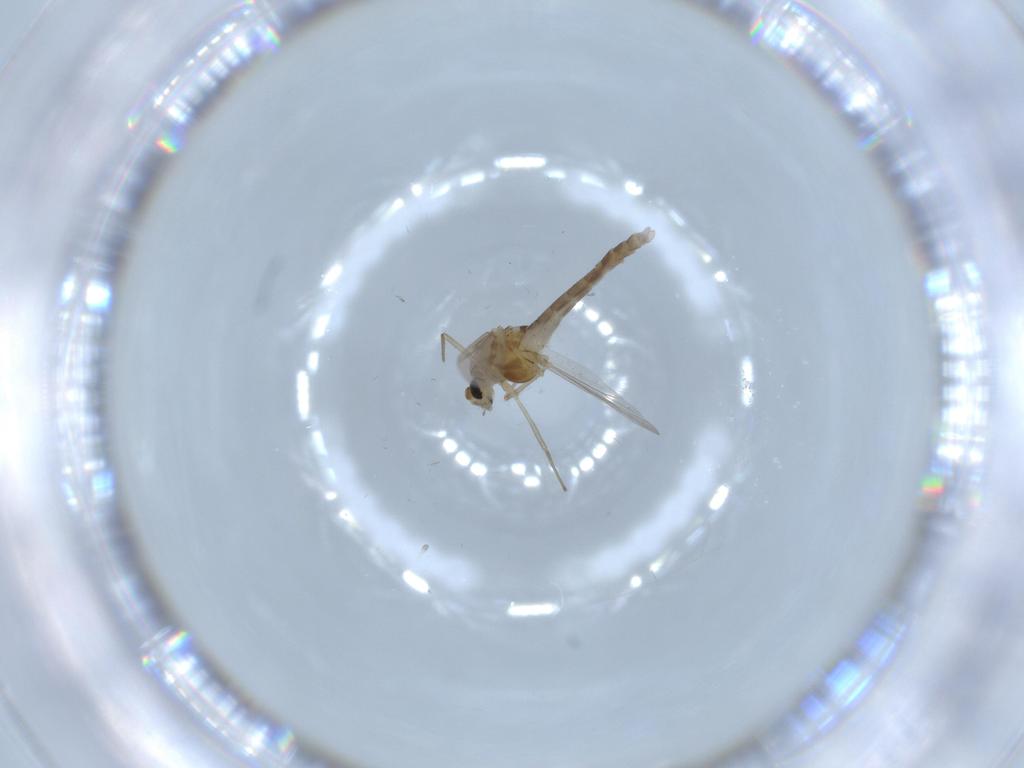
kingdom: Animalia
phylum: Arthropoda
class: Insecta
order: Diptera
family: Chironomidae
